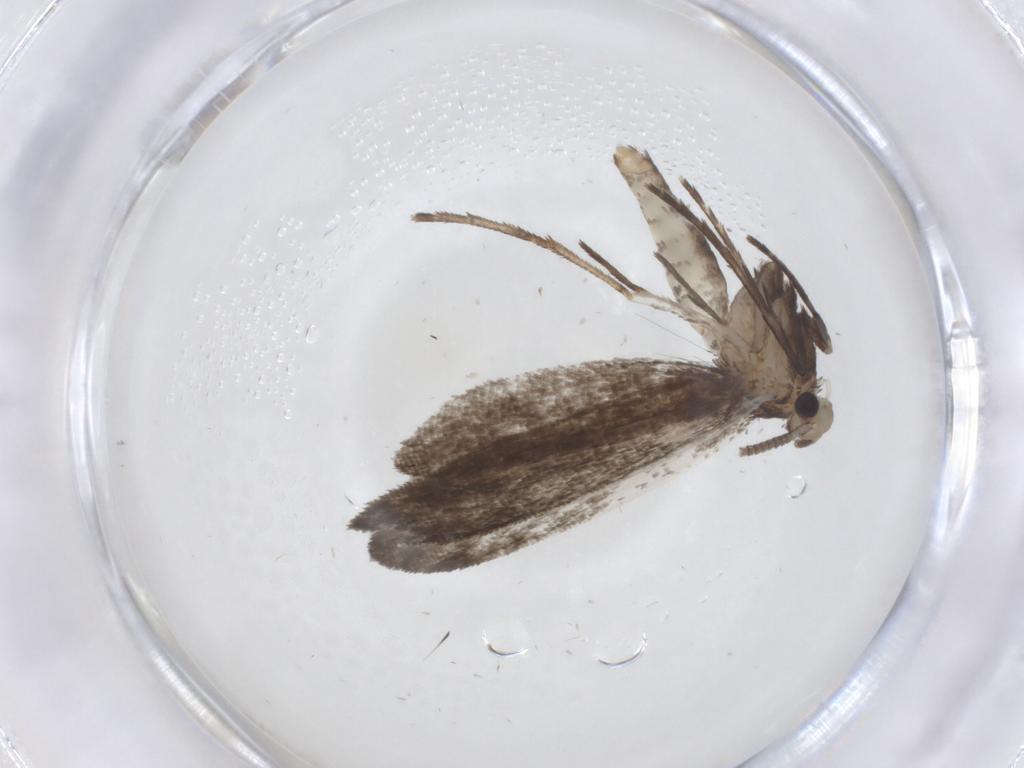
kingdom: Animalia
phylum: Arthropoda
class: Insecta
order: Lepidoptera
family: Nymphalidae
